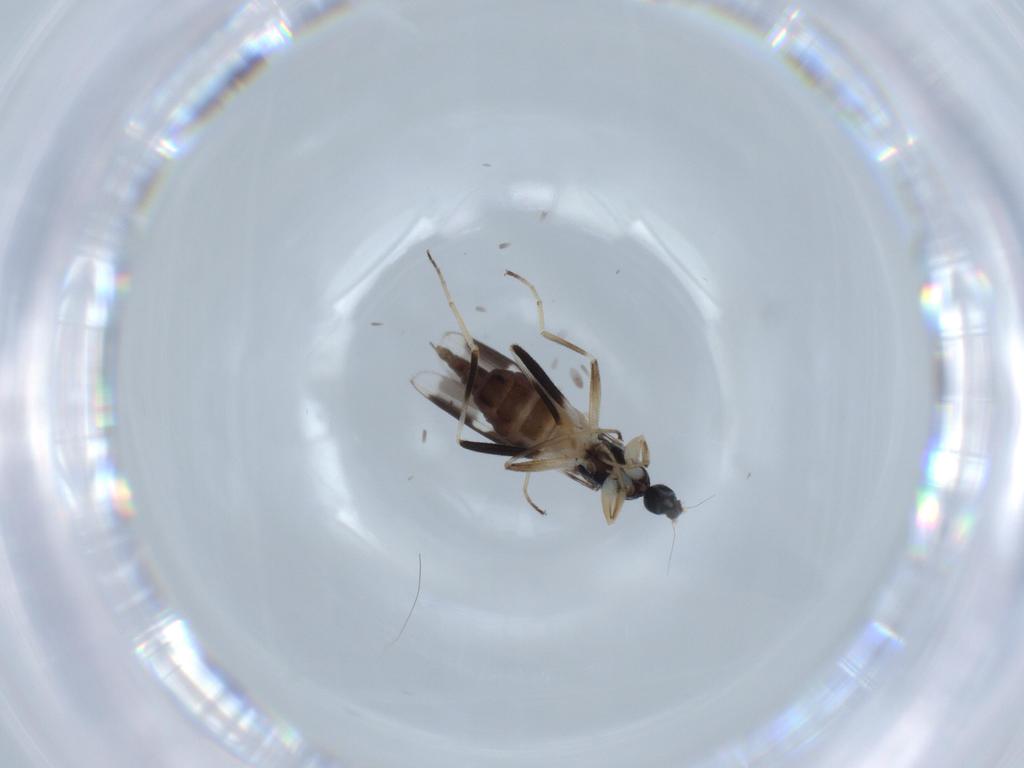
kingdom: Animalia
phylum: Arthropoda
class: Insecta
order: Diptera
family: Hybotidae
